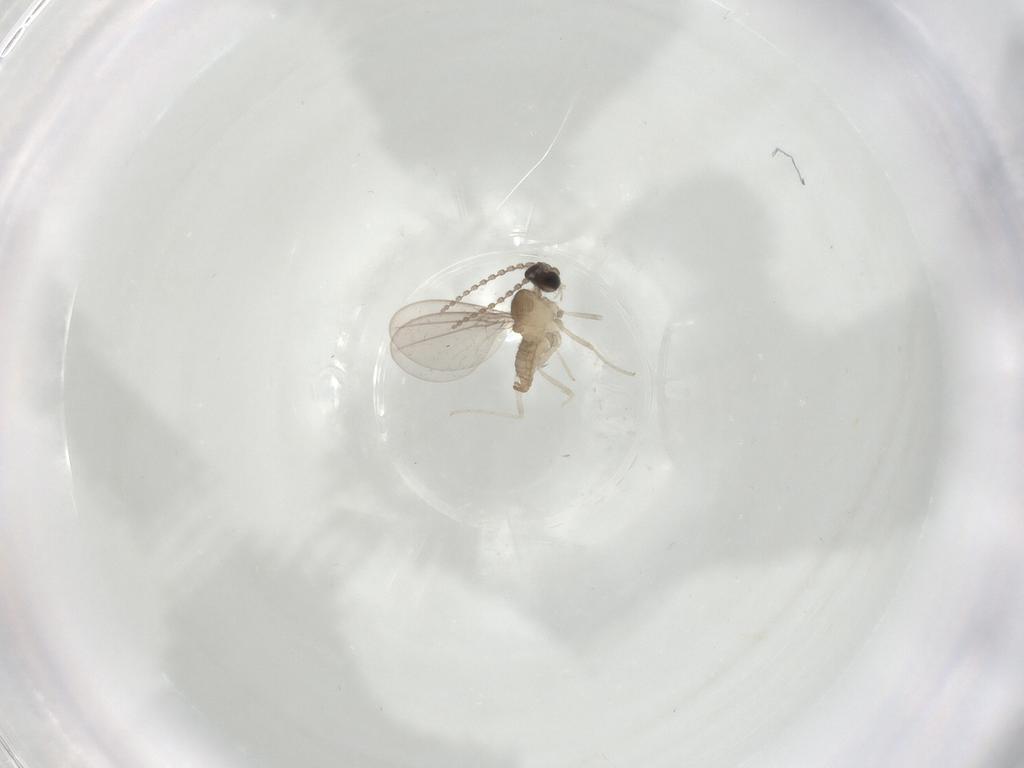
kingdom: Animalia
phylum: Arthropoda
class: Insecta
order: Diptera
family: Cecidomyiidae
